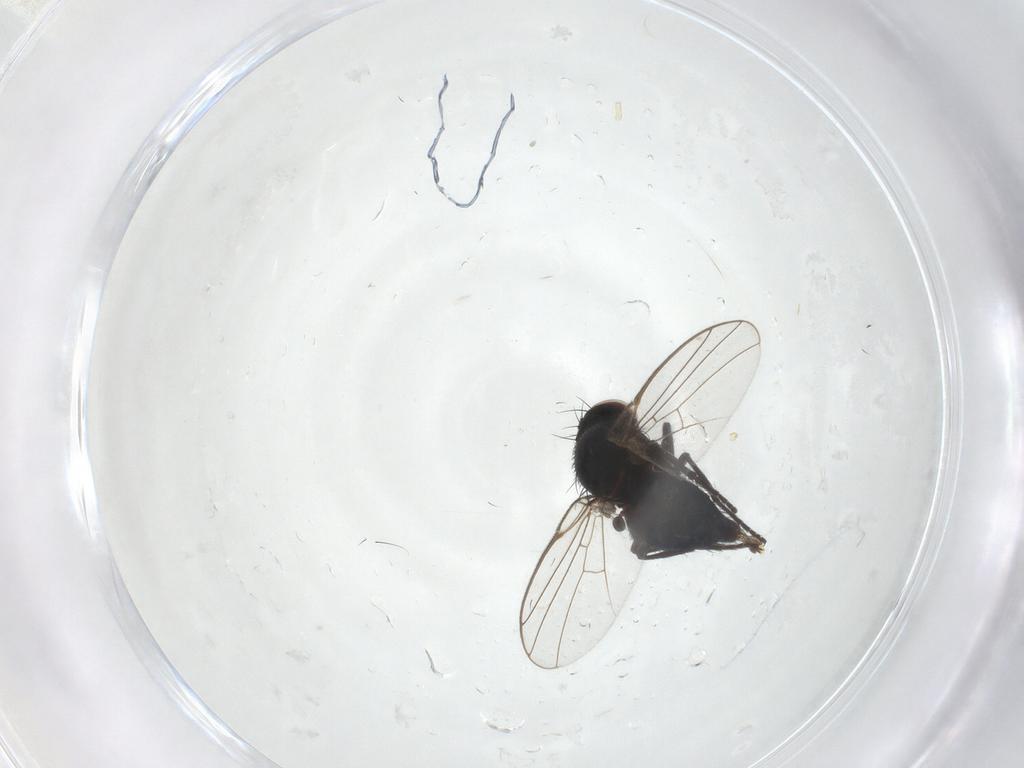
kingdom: Animalia
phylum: Arthropoda
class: Insecta
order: Diptera
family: Agromyzidae
